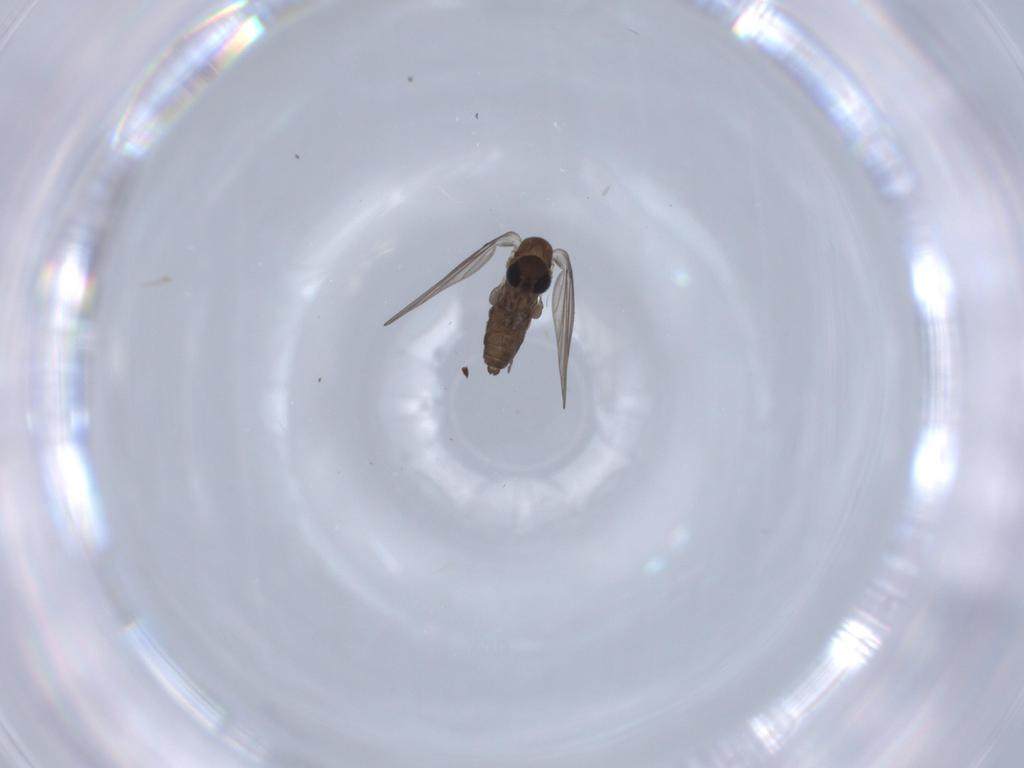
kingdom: Animalia
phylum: Arthropoda
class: Insecta
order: Diptera
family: Psychodidae
